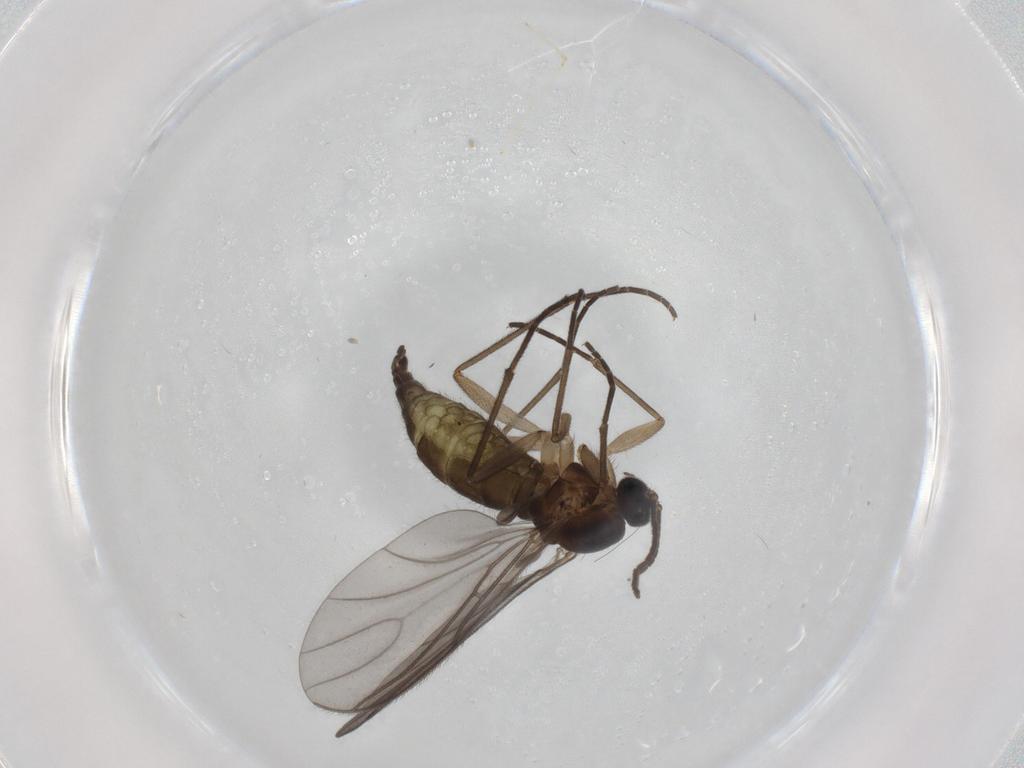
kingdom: Animalia
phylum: Arthropoda
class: Insecta
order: Diptera
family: Sciaridae
